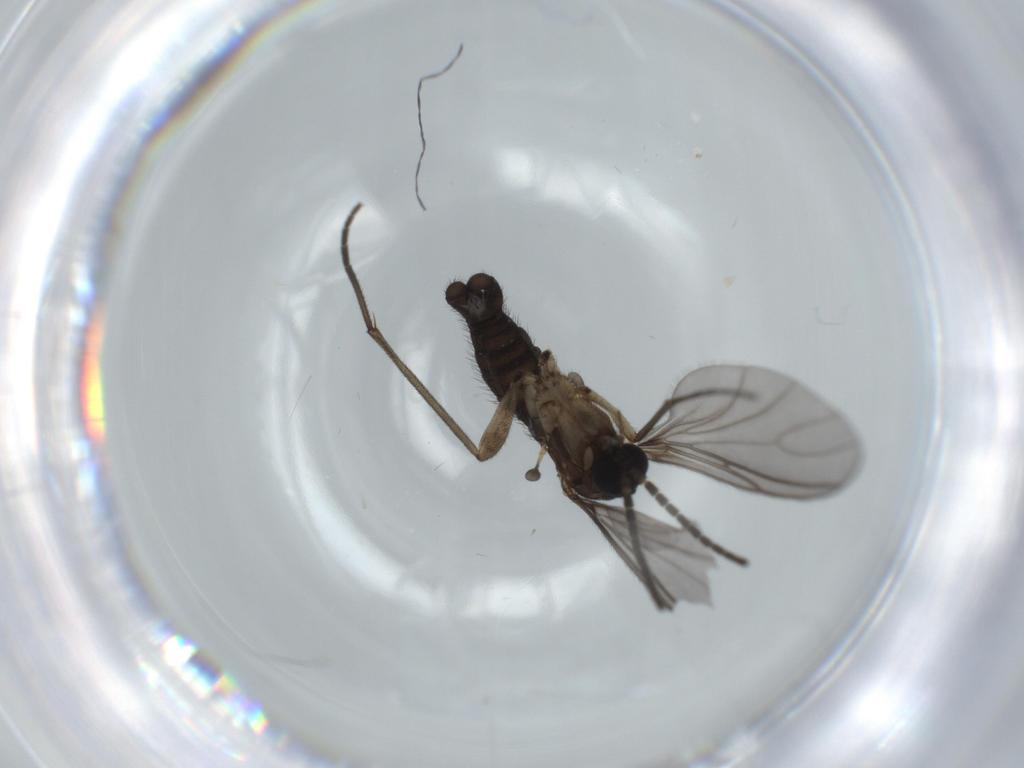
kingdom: Animalia
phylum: Arthropoda
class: Insecta
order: Diptera
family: Sciaridae
